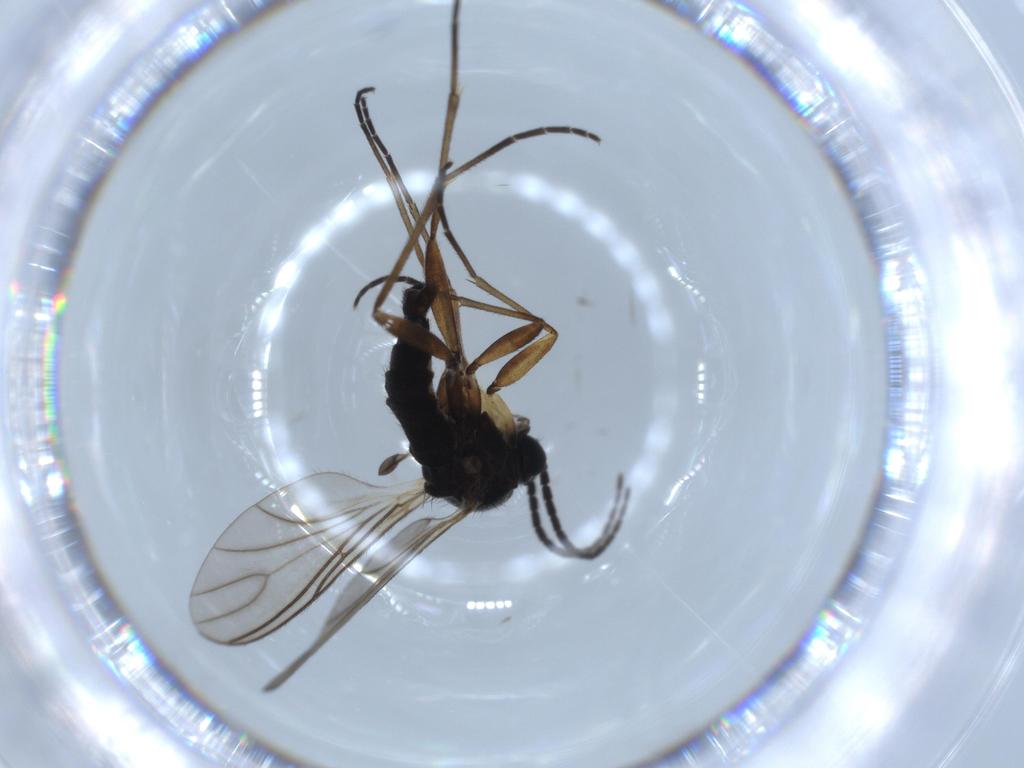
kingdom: Animalia
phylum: Arthropoda
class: Insecta
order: Diptera
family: Sciaridae
